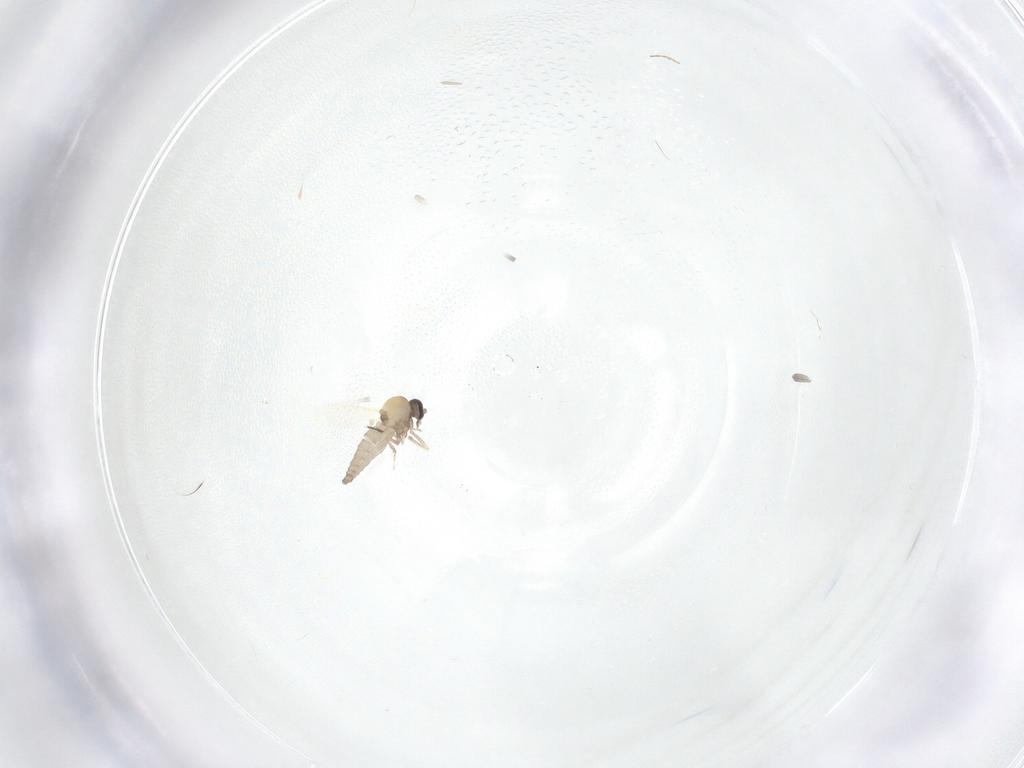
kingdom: Animalia
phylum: Arthropoda
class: Insecta
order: Diptera
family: Ceratopogonidae
